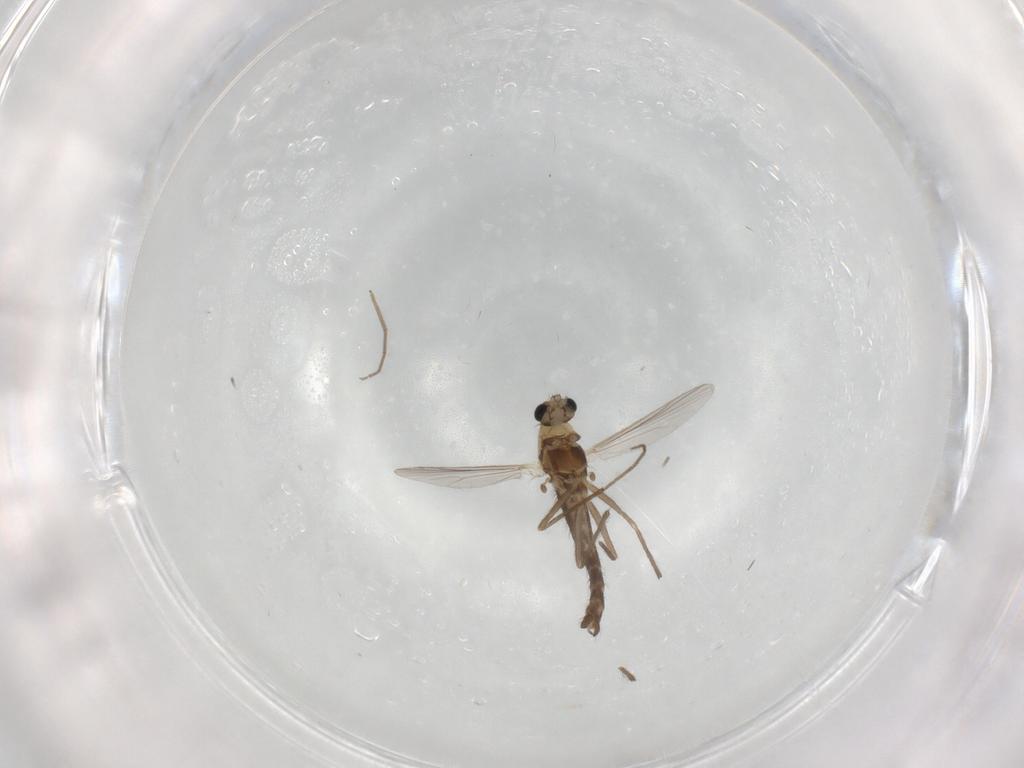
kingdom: Animalia
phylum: Arthropoda
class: Insecta
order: Diptera
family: Chironomidae
